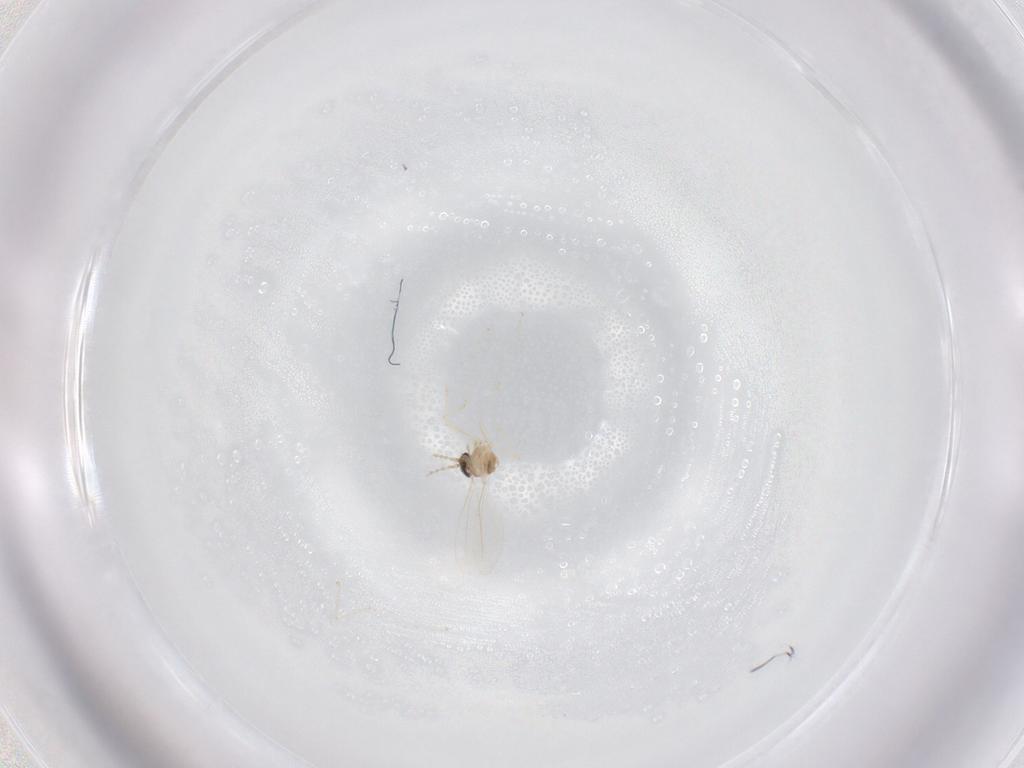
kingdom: Animalia
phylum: Arthropoda
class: Insecta
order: Diptera
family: Cecidomyiidae
